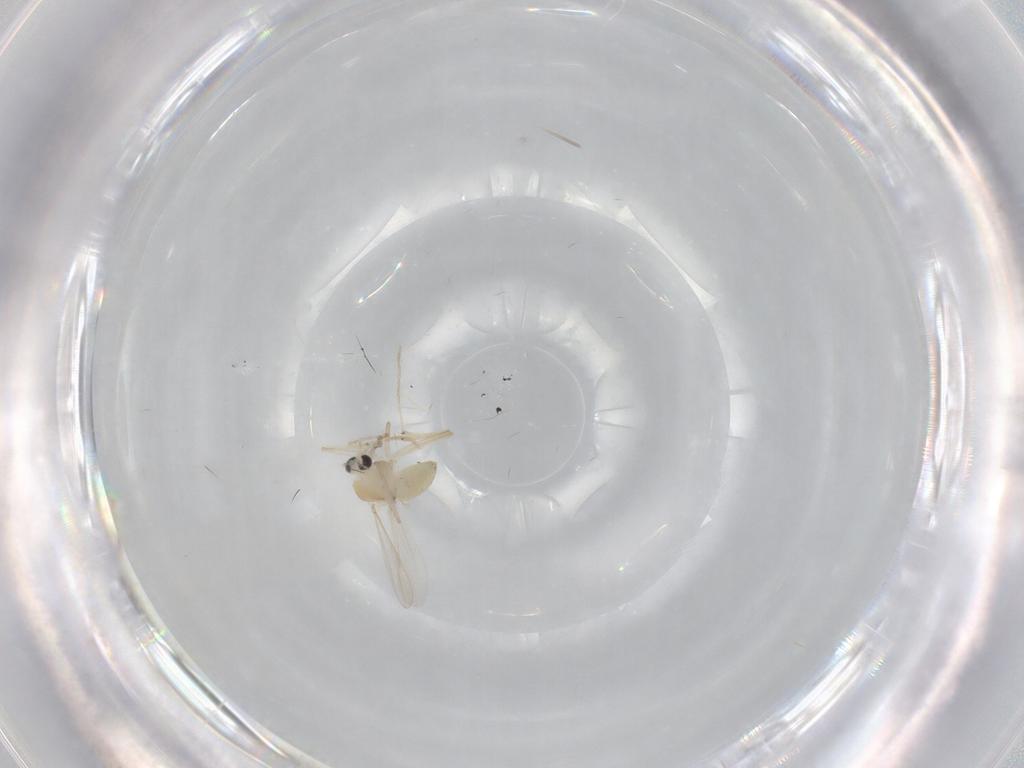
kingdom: Animalia
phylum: Arthropoda
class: Insecta
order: Diptera
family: Chironomidae
